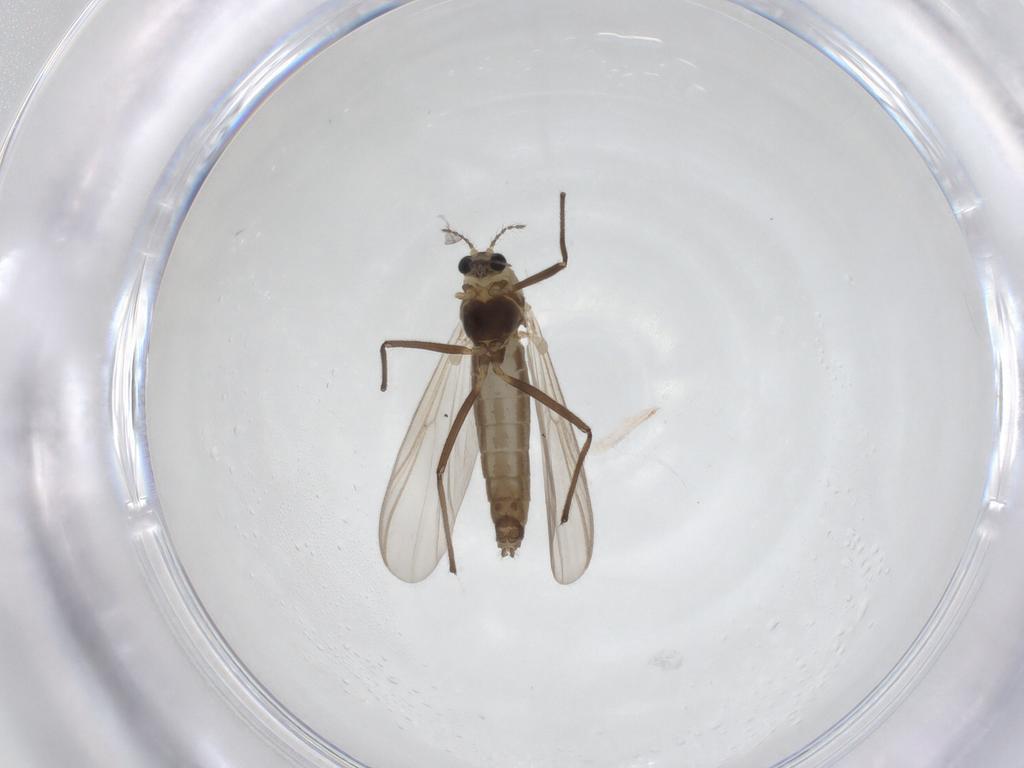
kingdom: Animalia
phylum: Arthropoda
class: Insecta
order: Diptera
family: Chironomidae
